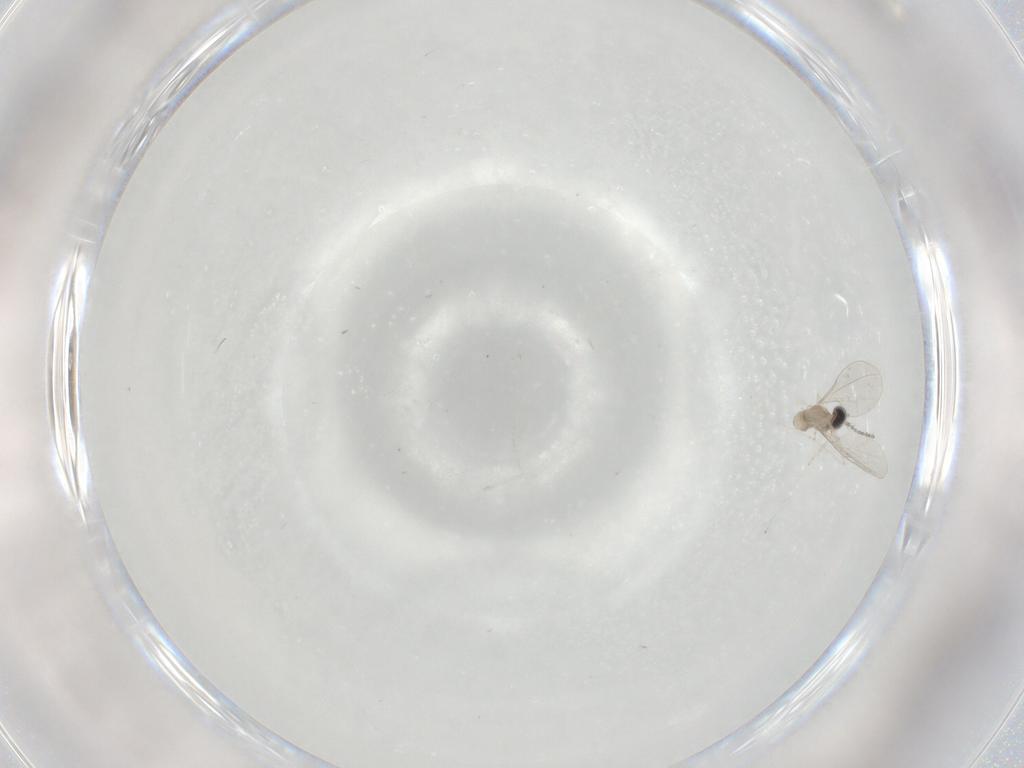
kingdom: Animalia
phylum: Arthropoda
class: Insecta
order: Diptera
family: Cecidomyiidae
